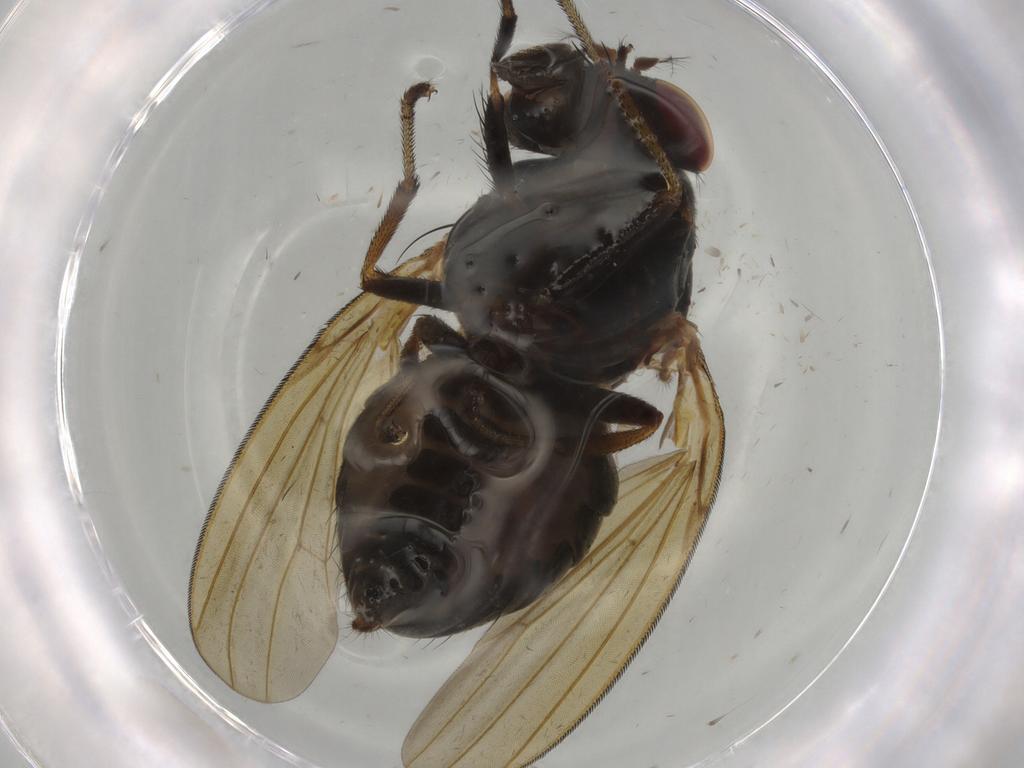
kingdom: Animalia
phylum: Arthropoda
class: Insecta
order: Diptera
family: Lauxaniidae
